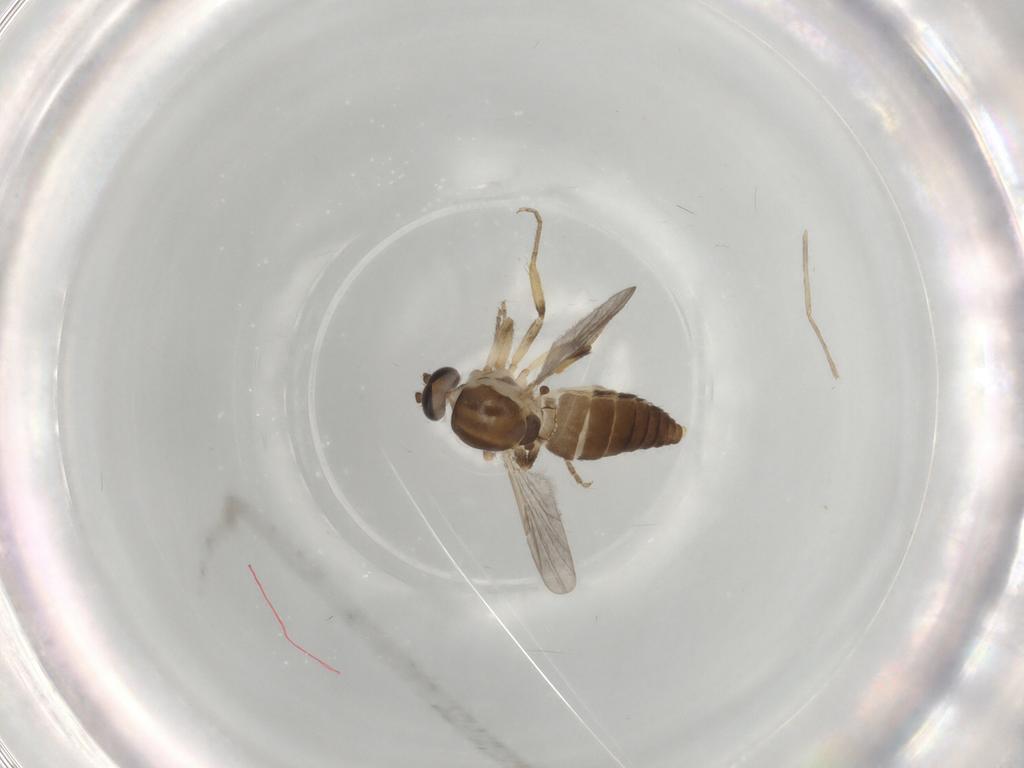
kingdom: Animalia
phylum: Arthropoda
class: Insecta
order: Diptera
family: Ceratopogonidae
